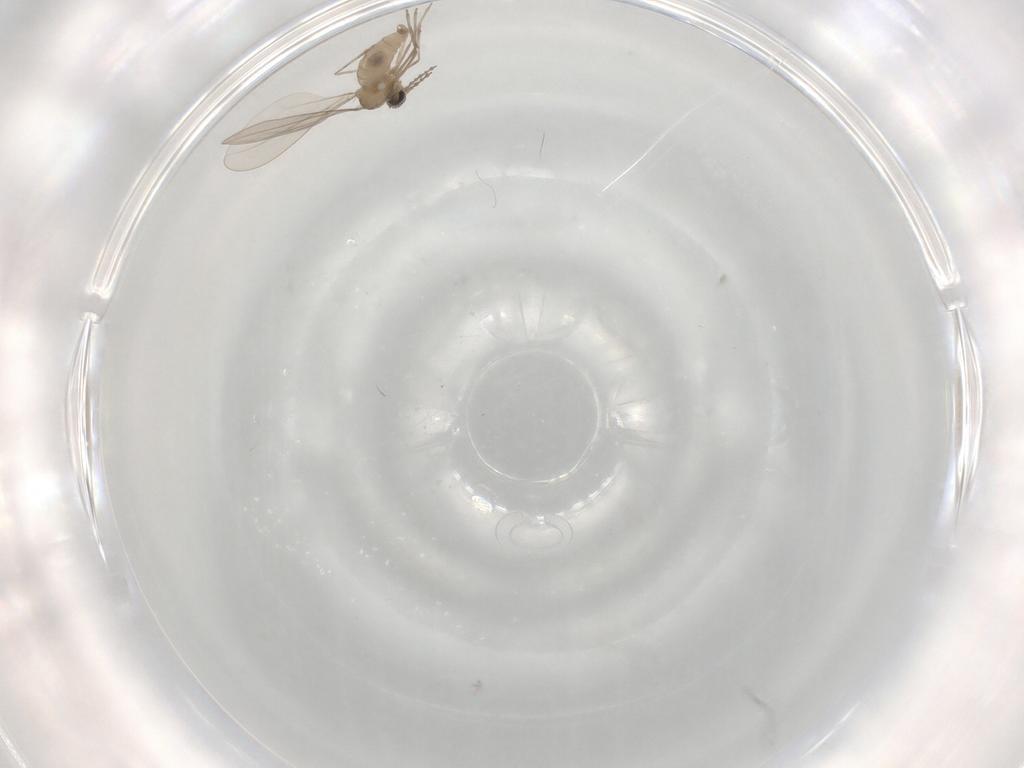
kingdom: Animalia
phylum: Arthropoda
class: Insecta
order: Diptera
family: Cecidomyiidae
